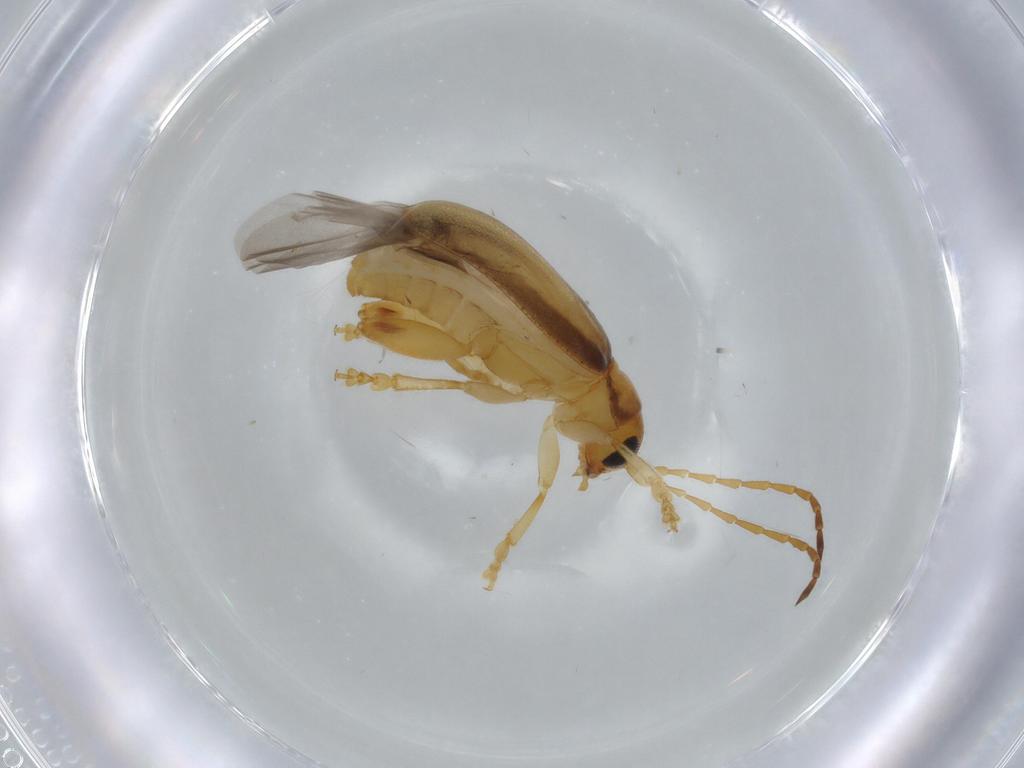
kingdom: Animalia
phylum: Arthropoda
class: Insecta
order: Coleoptera
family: Chrysomelidae
